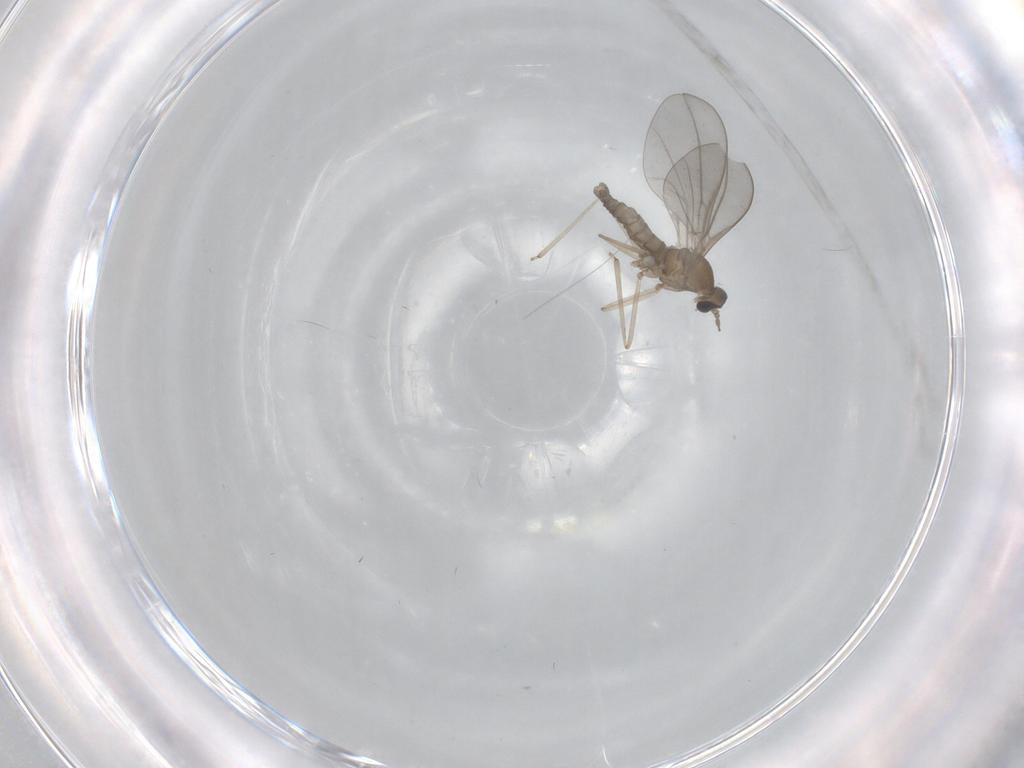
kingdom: Animalia
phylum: Arthropoda
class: Insecta
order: Diptera
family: Cecidomyiidae
